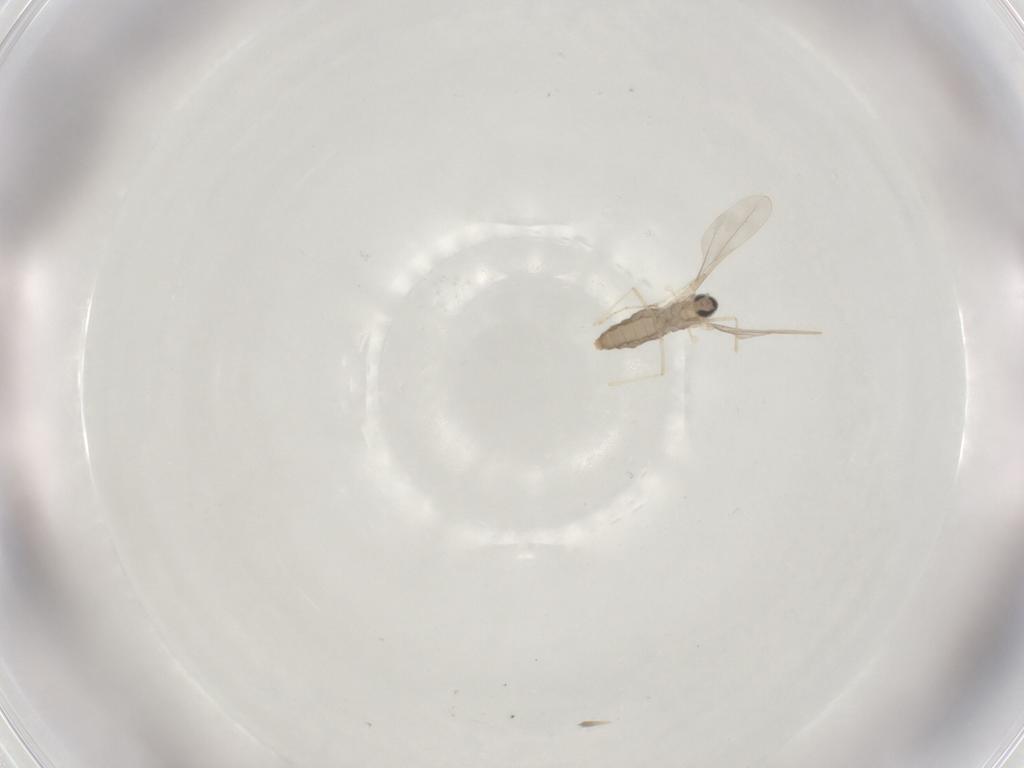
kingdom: Animalia
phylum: Arthropoda
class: Insecta
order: Diptera
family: Cecidomyiidae
